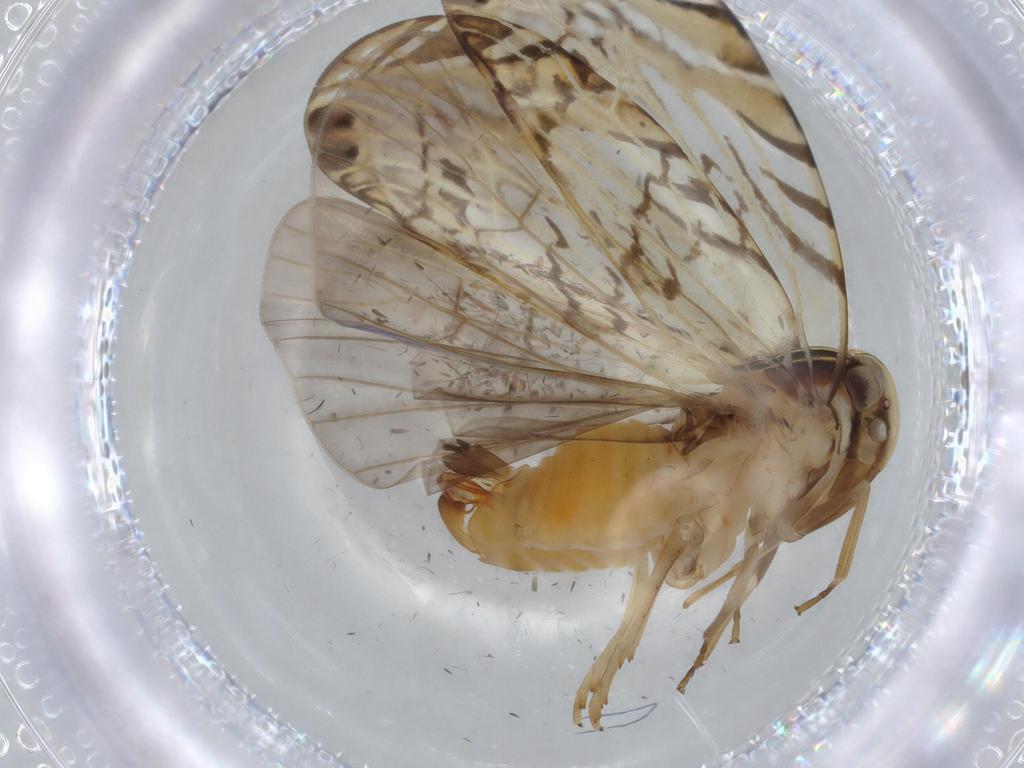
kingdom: Animalia
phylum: Arthropoda
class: Insecta
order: Hemiptera
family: Cixiidae
